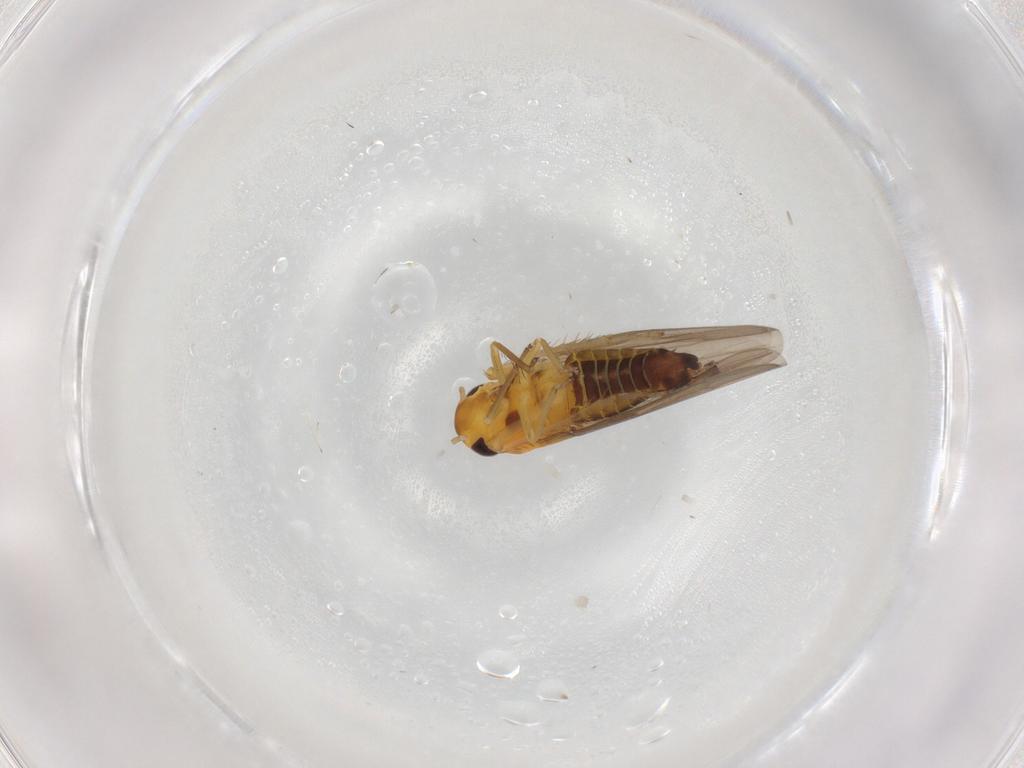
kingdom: Animalia
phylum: Arthropoda
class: Insecta
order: Hemiptera
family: Cicadellidae
